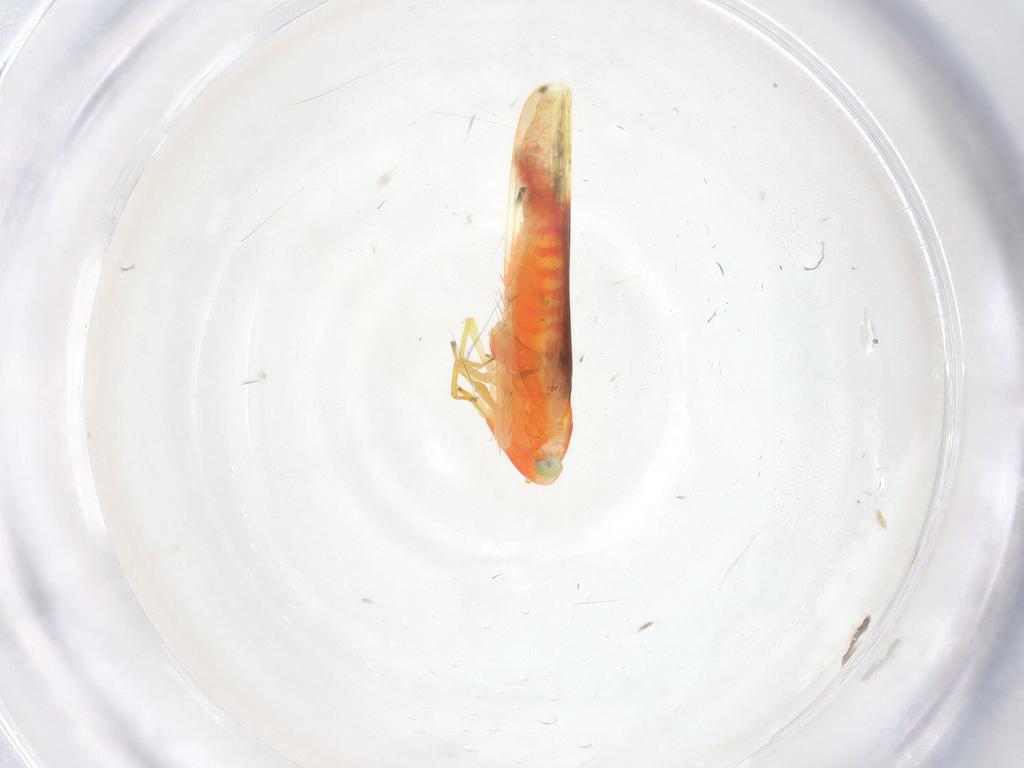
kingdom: Animalia
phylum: Arthropoda
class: Insecta
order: Hemiptera
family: Cicadellidae
